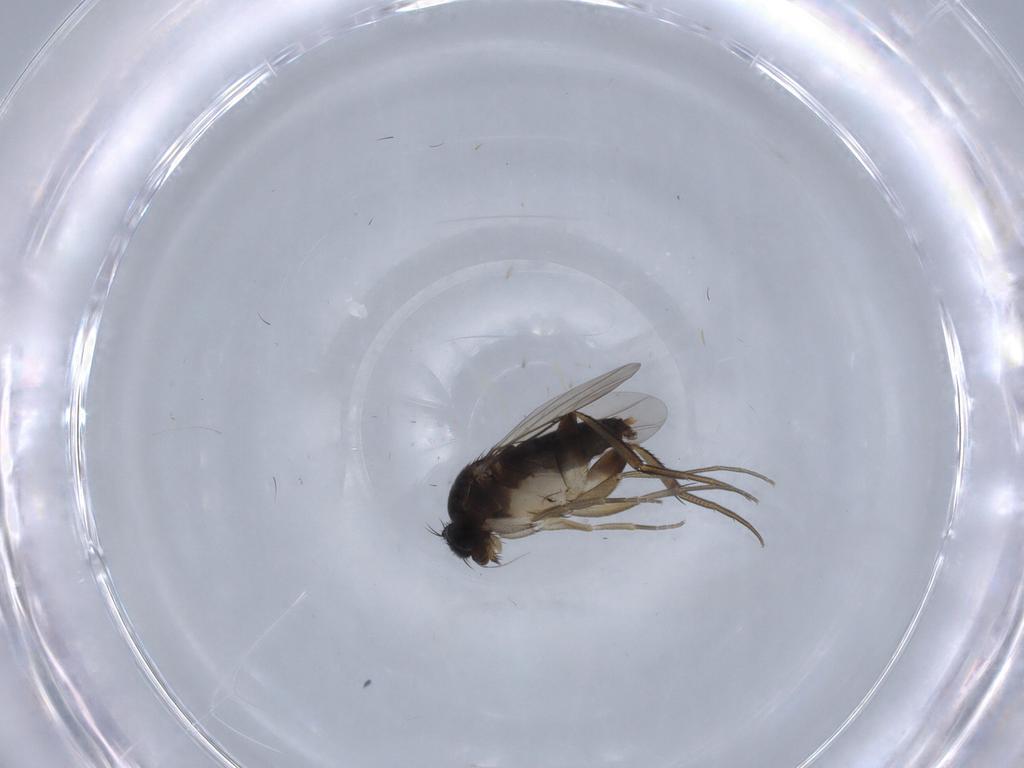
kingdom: Animalia
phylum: Arthropoda
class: Insecta
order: Diptera
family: Phoridae
